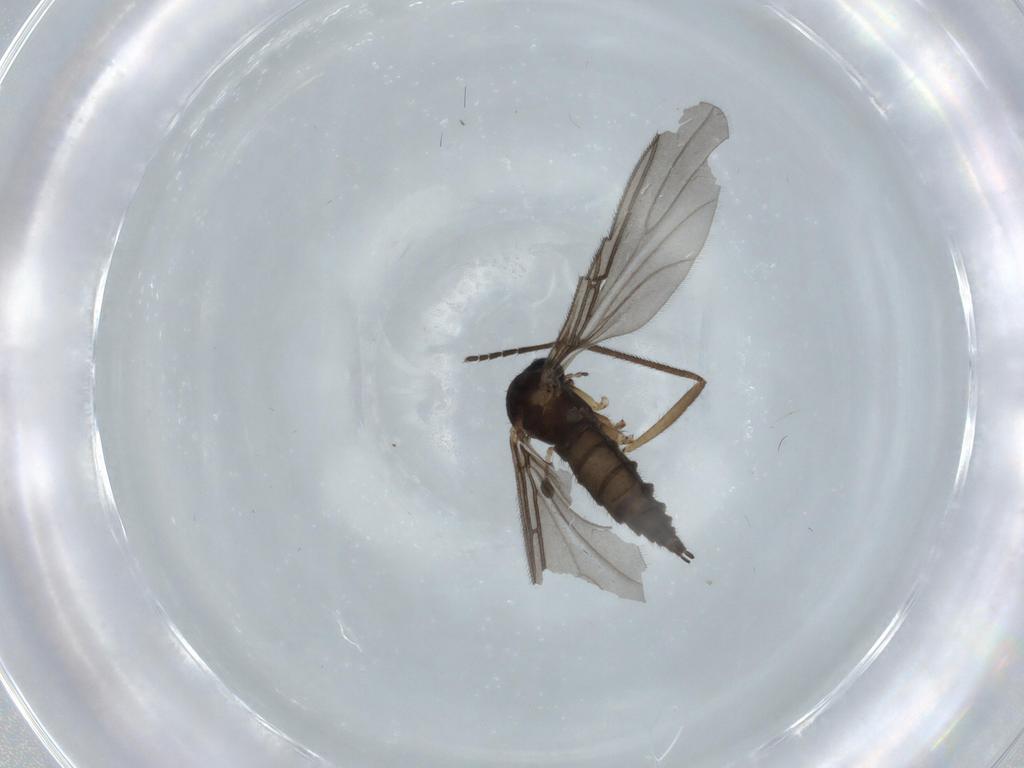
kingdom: Animalia
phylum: Arthropoda
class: Insecta
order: Diptera
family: Sciaridae
